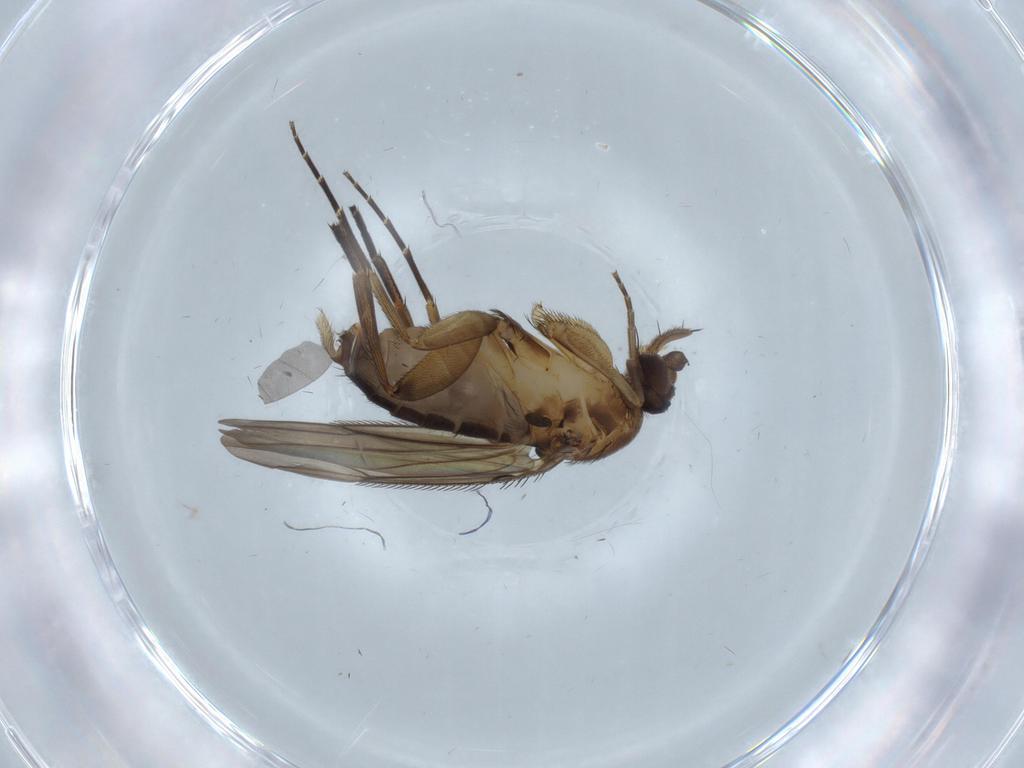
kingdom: Animalia
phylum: Arthropoda
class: Insecta
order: Diptera
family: Phoridae
